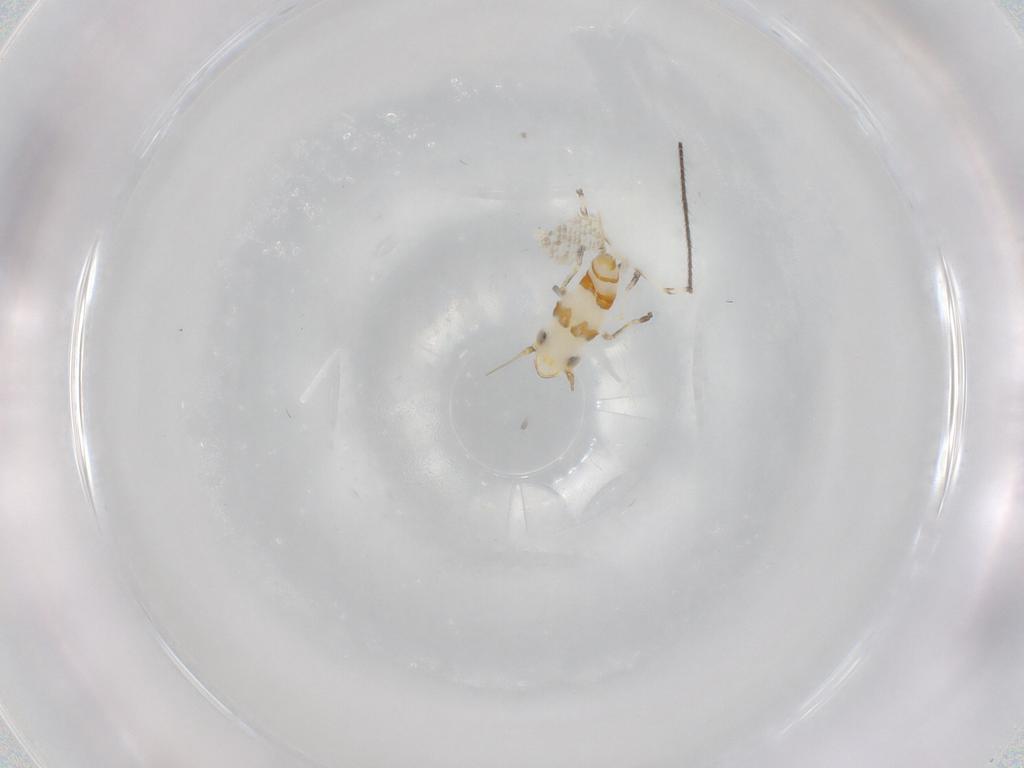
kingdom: Animalia
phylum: Arthropoda
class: Insecta
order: Hemiptera
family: Cicadellidae
